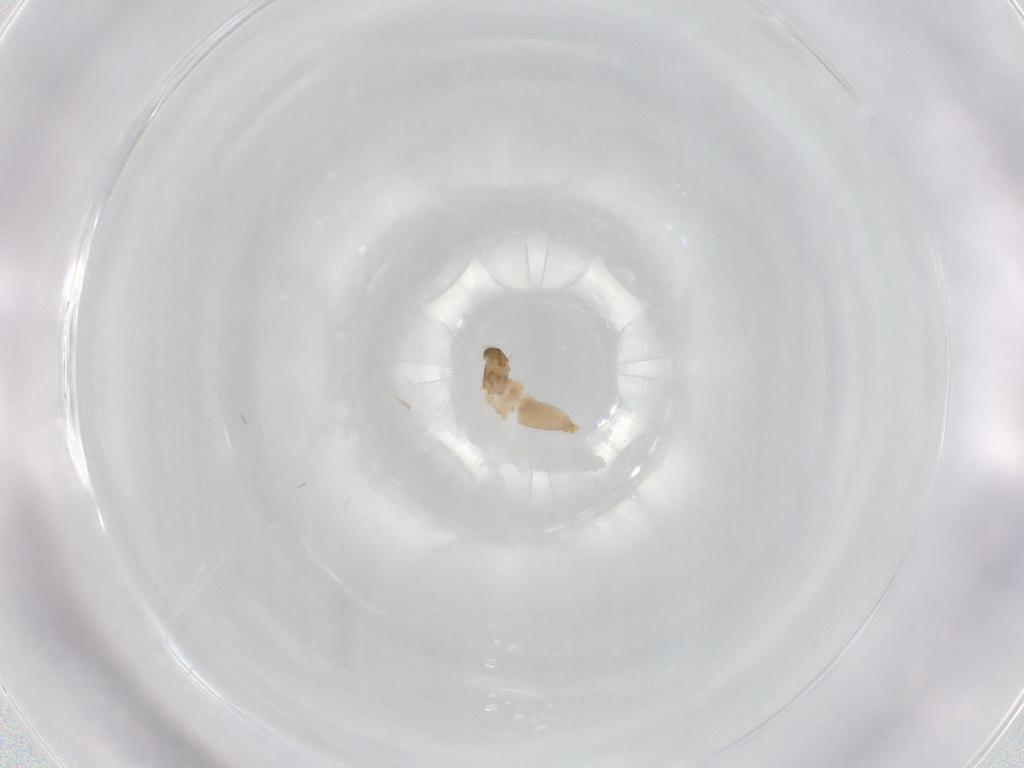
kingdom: Animalia
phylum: Arthropoda
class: Insecta
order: Diptera
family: Cecidomyiidae
